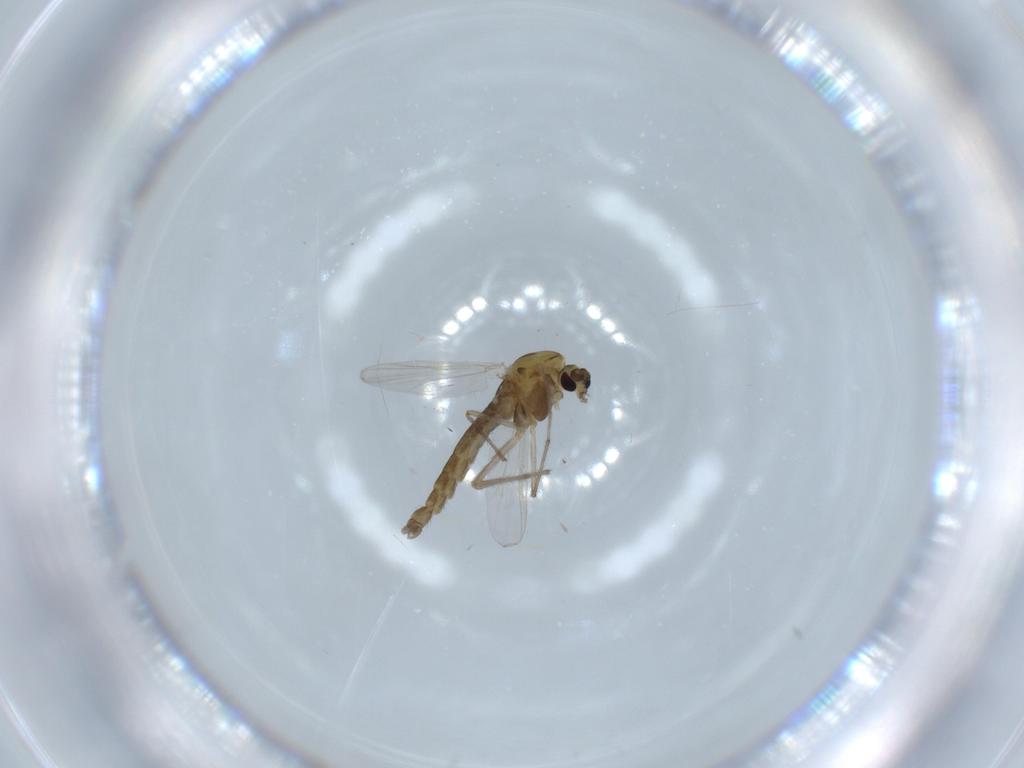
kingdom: Animalia
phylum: Arthropoda
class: Insecta
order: Diptera
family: Chironomidae
